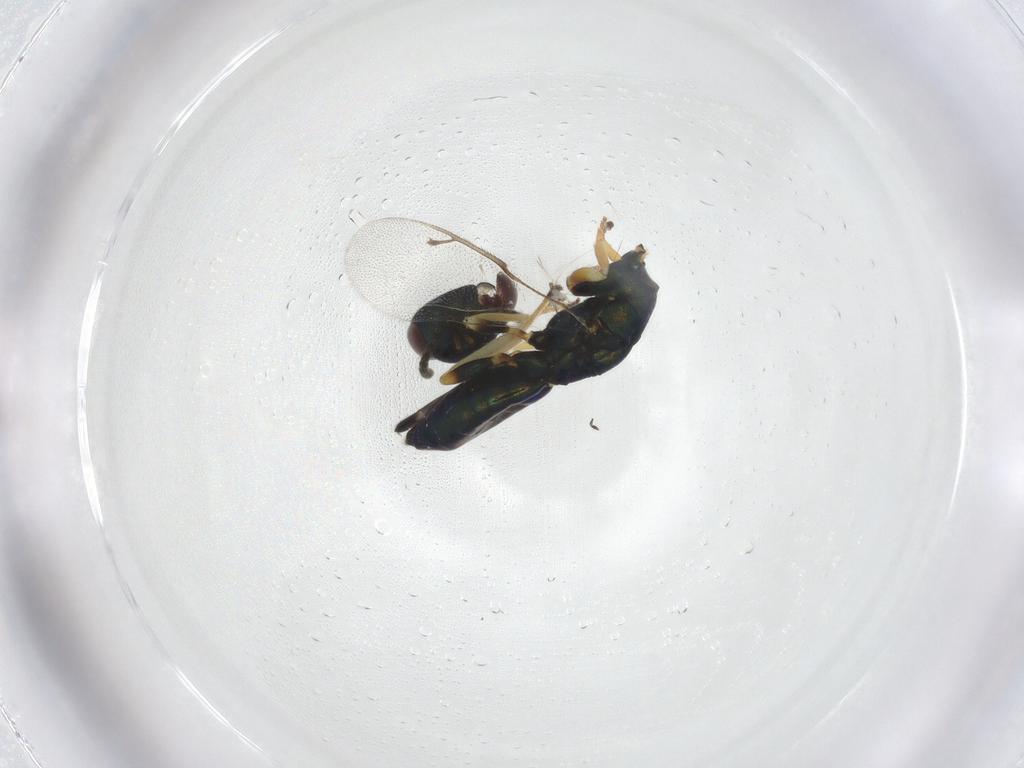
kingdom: Animalia
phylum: Arthropoda
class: Insecta
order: Hymenoptera
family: Pteromalidae
